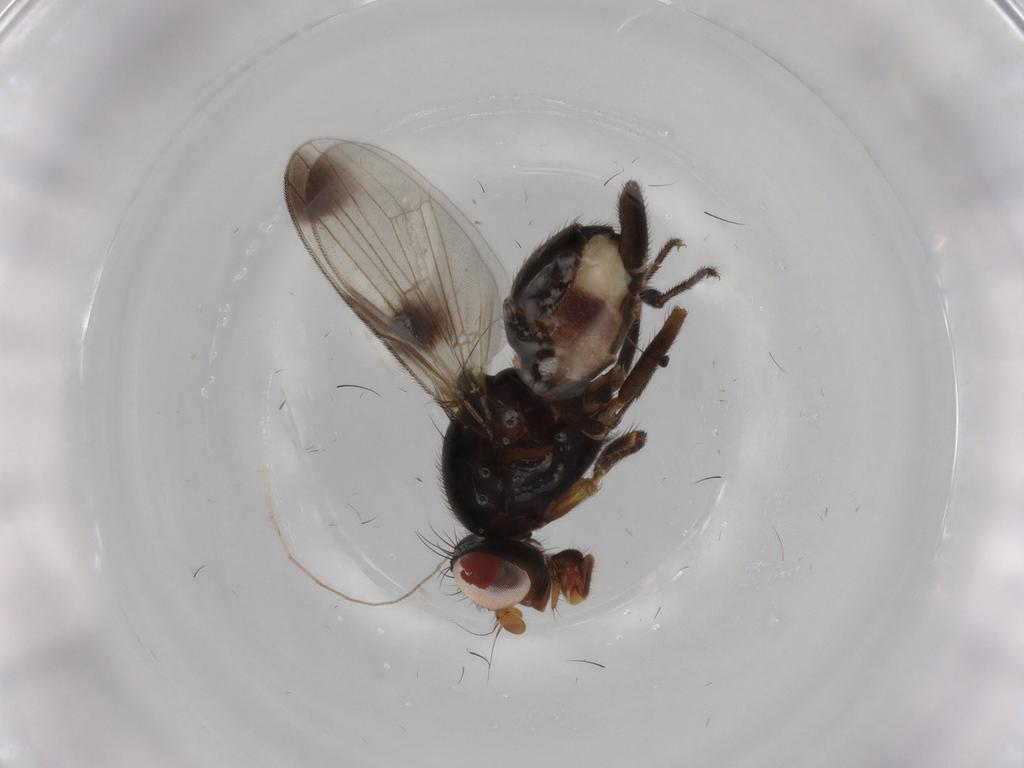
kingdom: Animalia
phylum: Arthropoda
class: Insecta
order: Diptera
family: Ulidiidae
